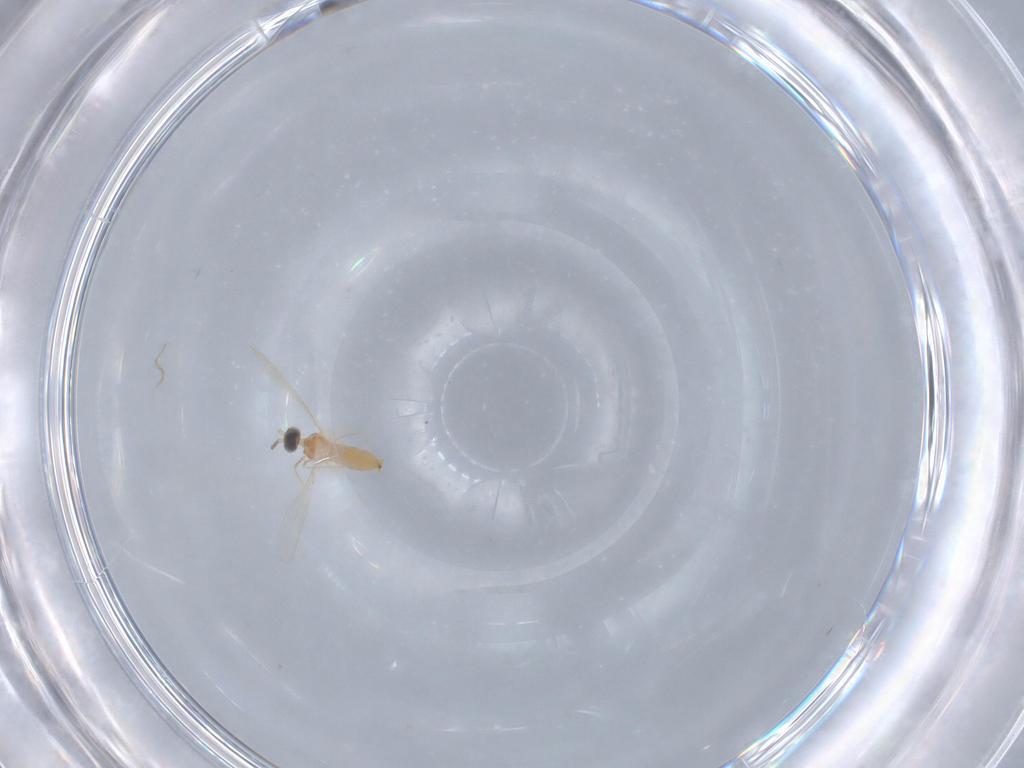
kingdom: Animalia
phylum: Arthropoda
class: Insecta
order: Diptera
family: Cecidomyiidae
